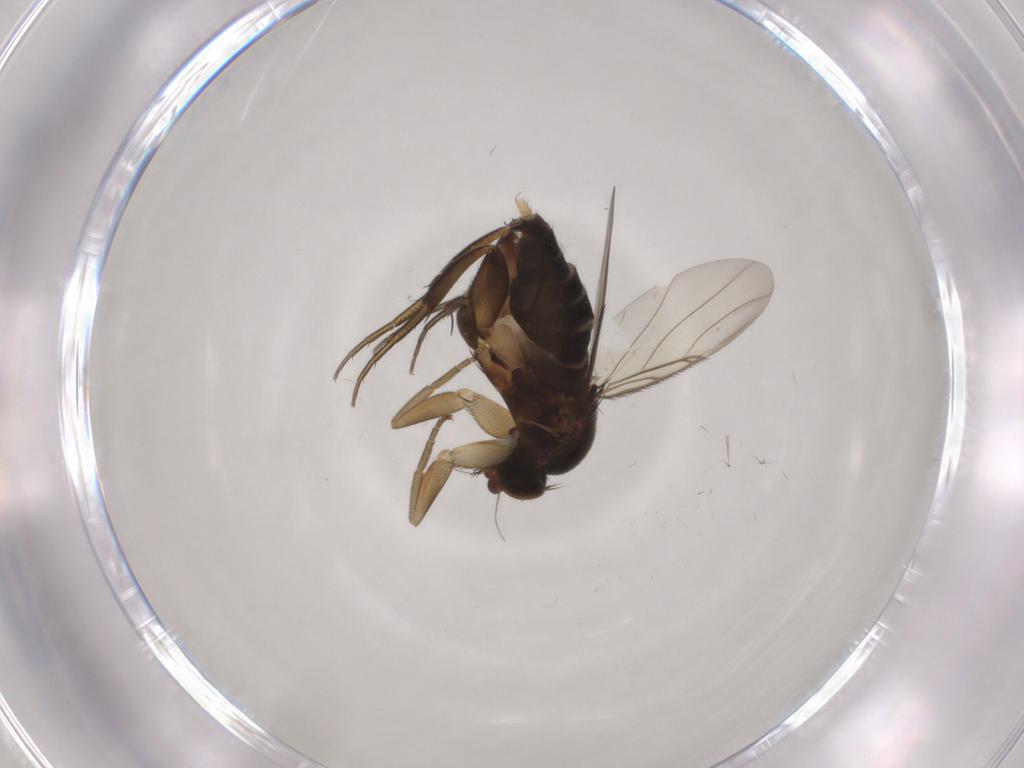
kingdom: Animalia
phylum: Arthropoda
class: Insecta
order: Diptera
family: Phoridae
